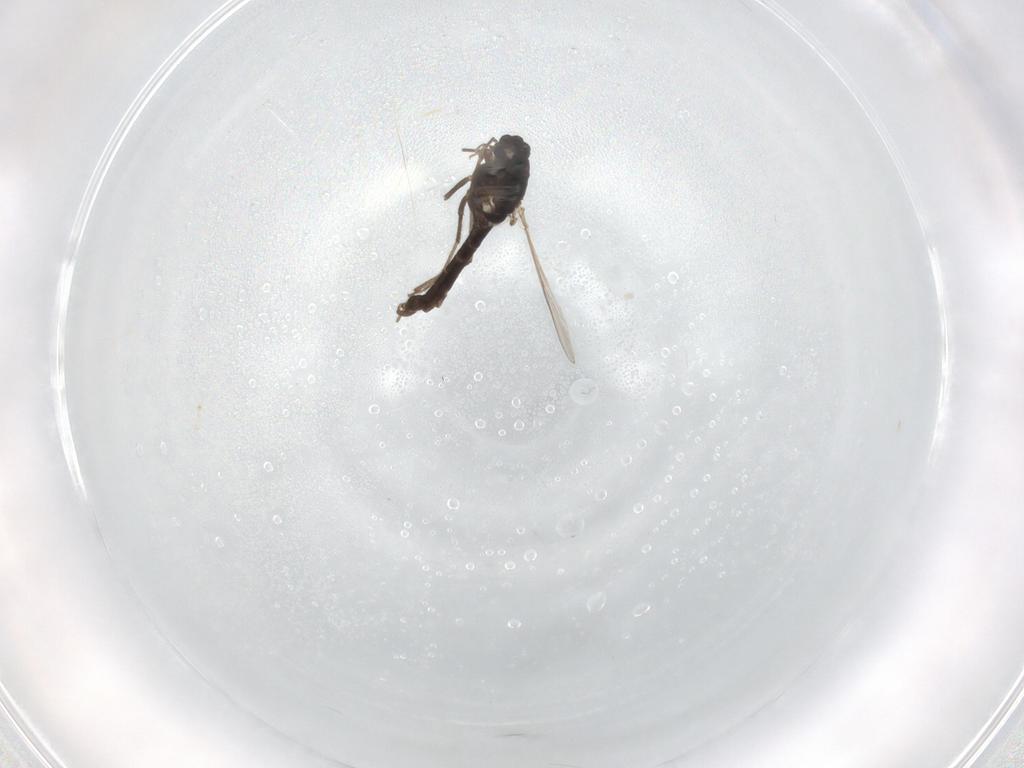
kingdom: Animalia
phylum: Arthropoda
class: Insecta
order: Diptera
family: Chironomidae
